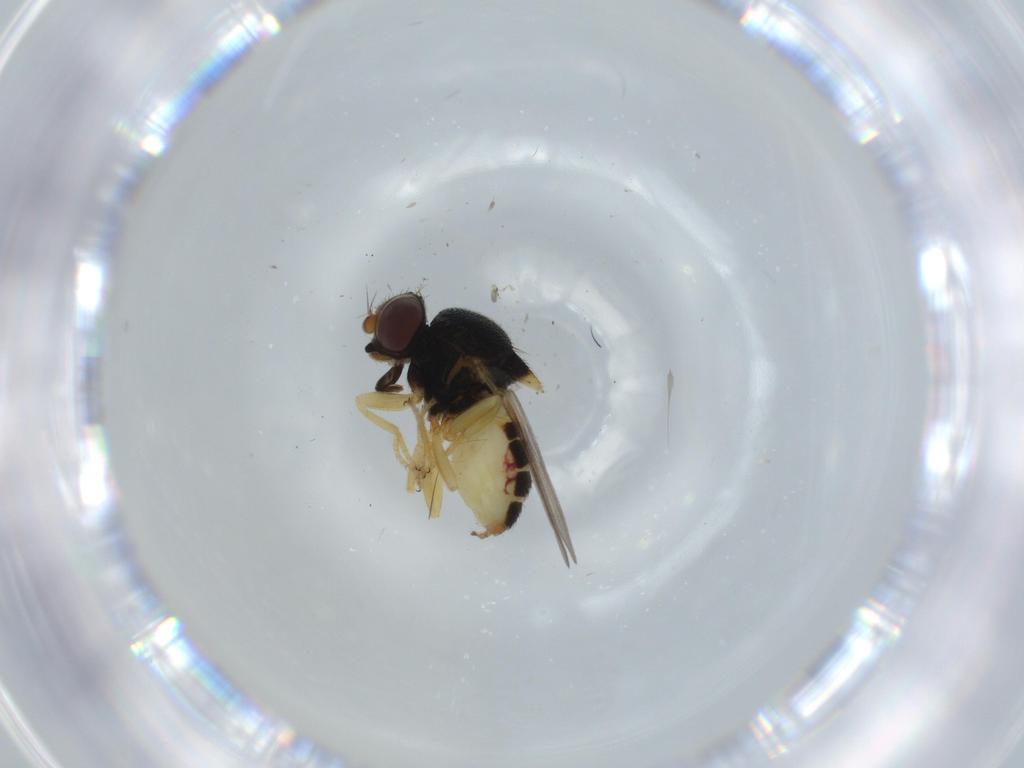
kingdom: Animalia
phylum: Arthropoda
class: Insecta
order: Diptera
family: Chloropidae
